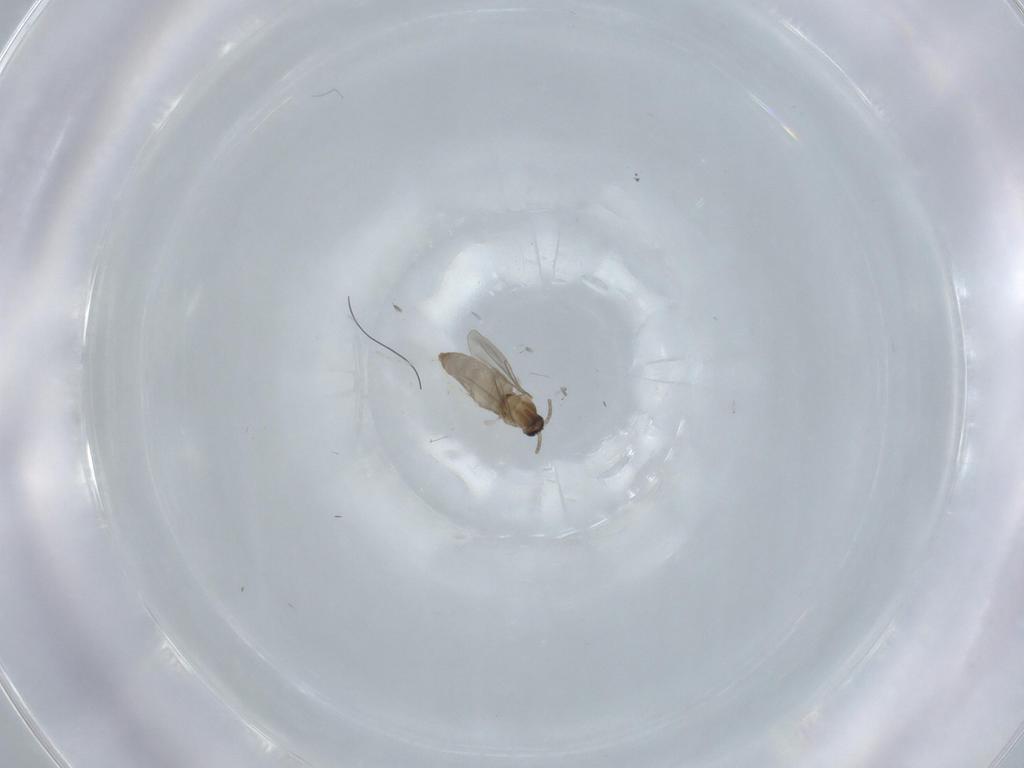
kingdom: Animalia
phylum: Arthropoda
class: Insecta
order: Diptera
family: Cecidomyiidae
